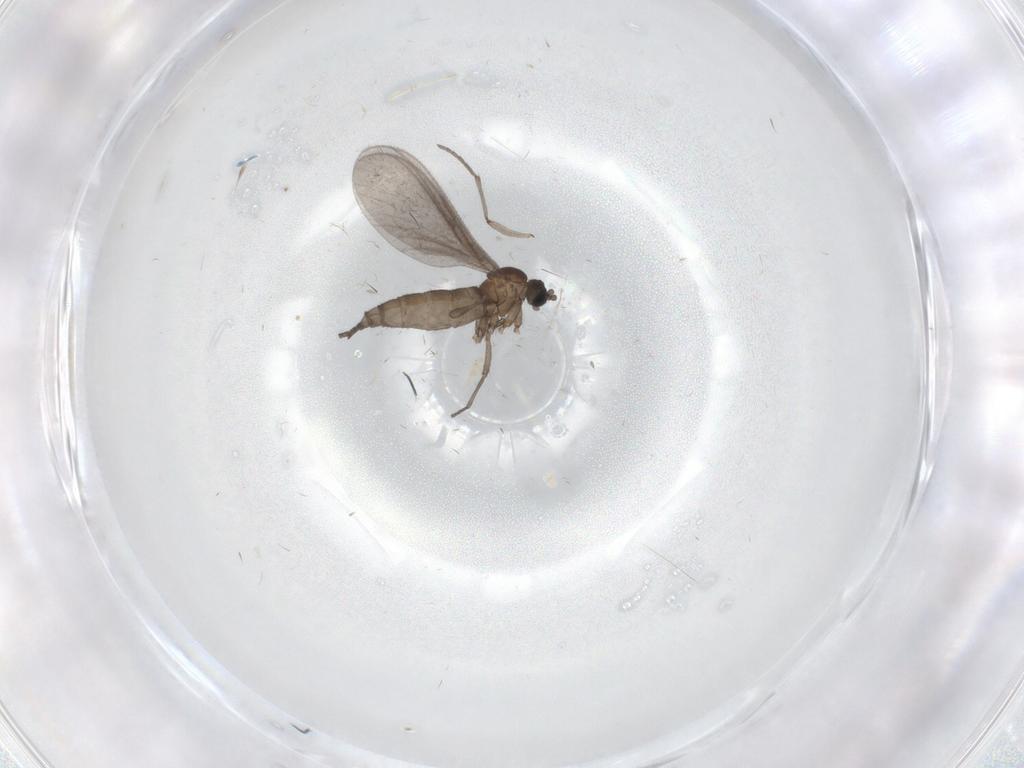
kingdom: Animalia
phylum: Arthropoda
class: Insecta
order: Diptera
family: Sciaridae
